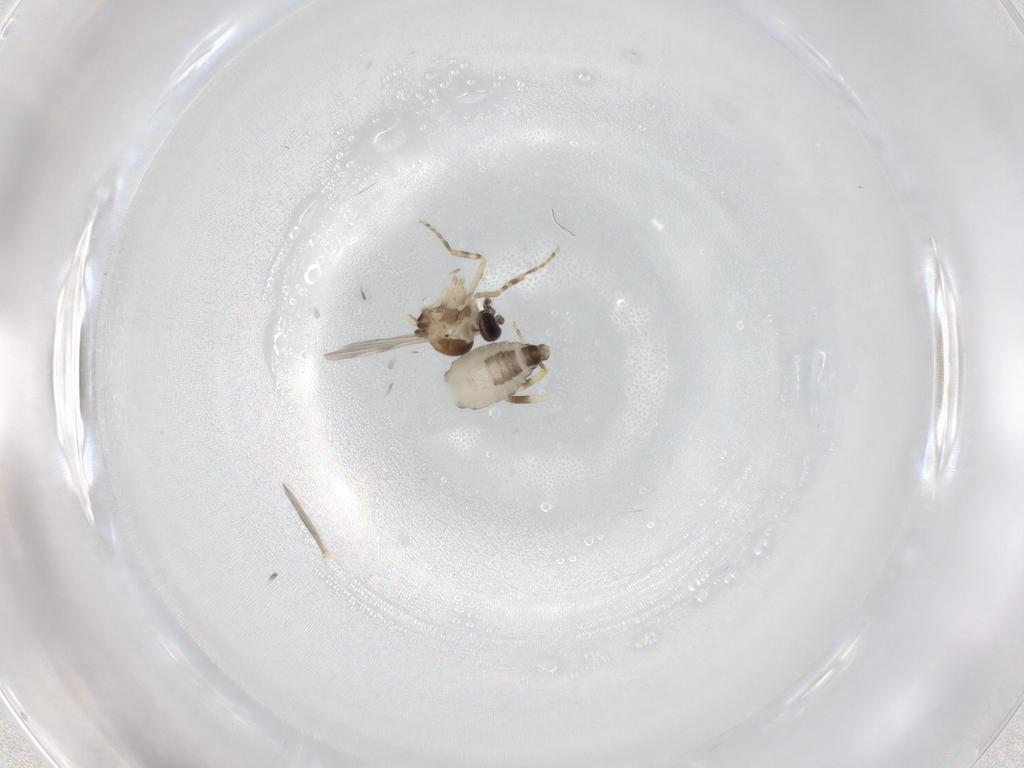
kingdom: Animalia
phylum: Arthropoda
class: Insecta
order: Diptera
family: Ceratopogonidae
